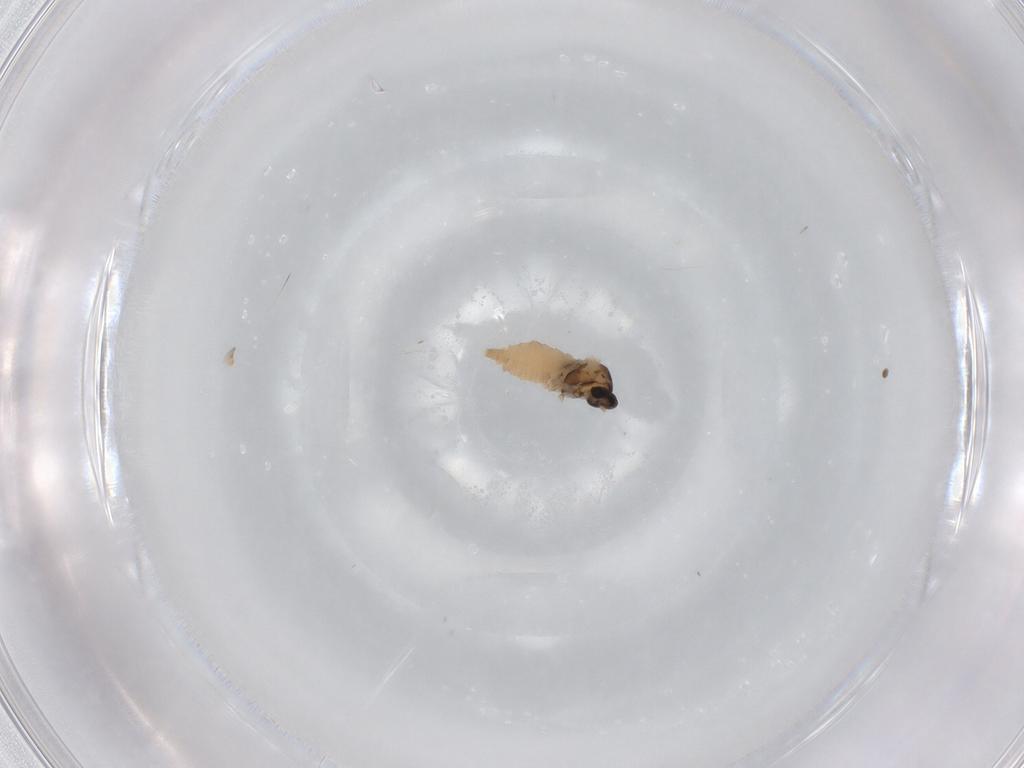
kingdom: Animalia
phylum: Arthropoda
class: Insecta
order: Diptera
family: Cecidomyiidae
